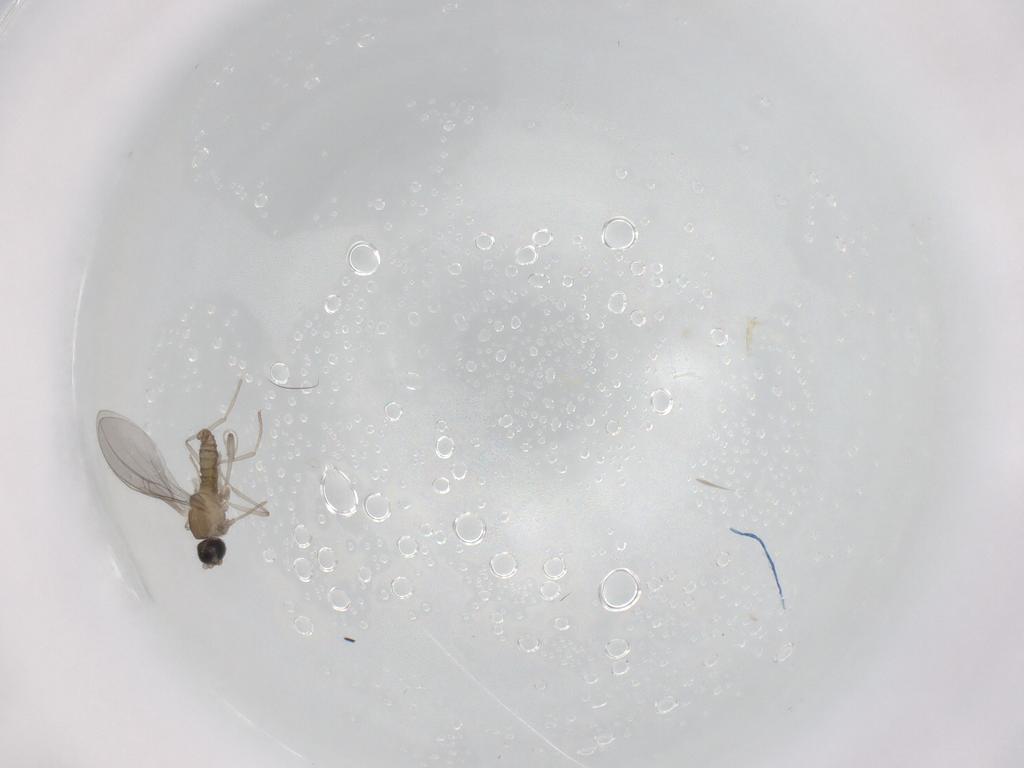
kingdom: Animalia
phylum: Arthropoda
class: Insecta
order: Diptera
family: Cecidomyiidae
